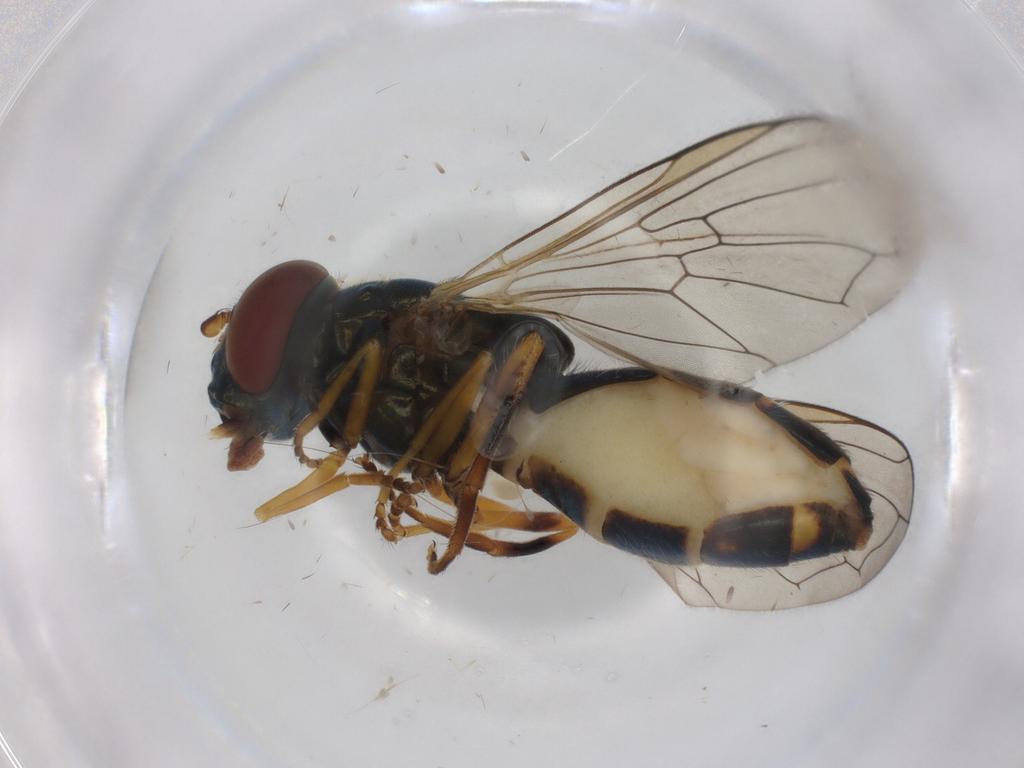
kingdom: Animalia
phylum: Arthropoda
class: Insecta
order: Diptera
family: Syrphidae
